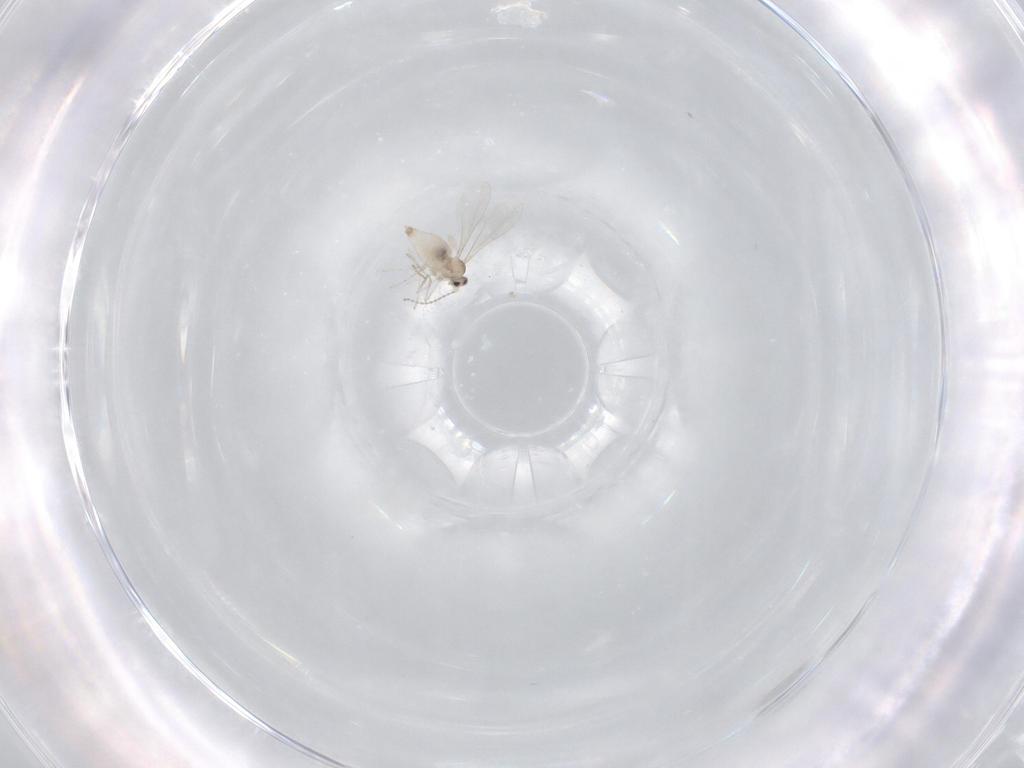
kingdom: Animalia
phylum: Arthropoda
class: Insecta
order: Diptera
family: Cecidomyiidae
